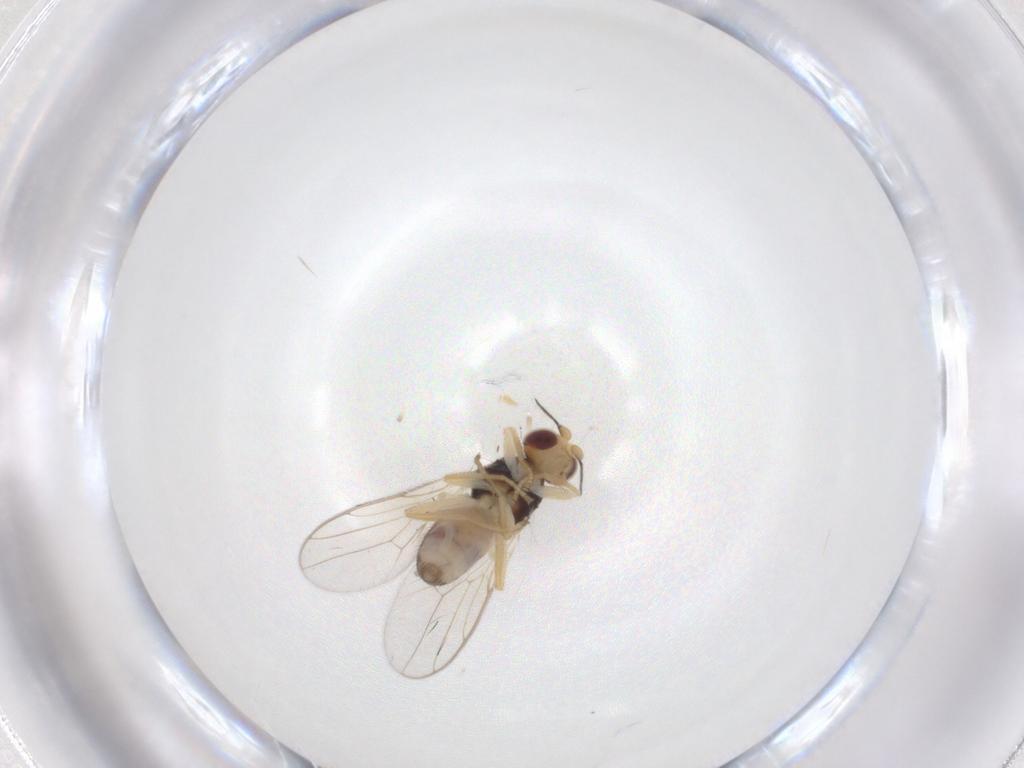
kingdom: Animalia
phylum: Arthropoda
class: Insecta
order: Diptera
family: Chloropidae
